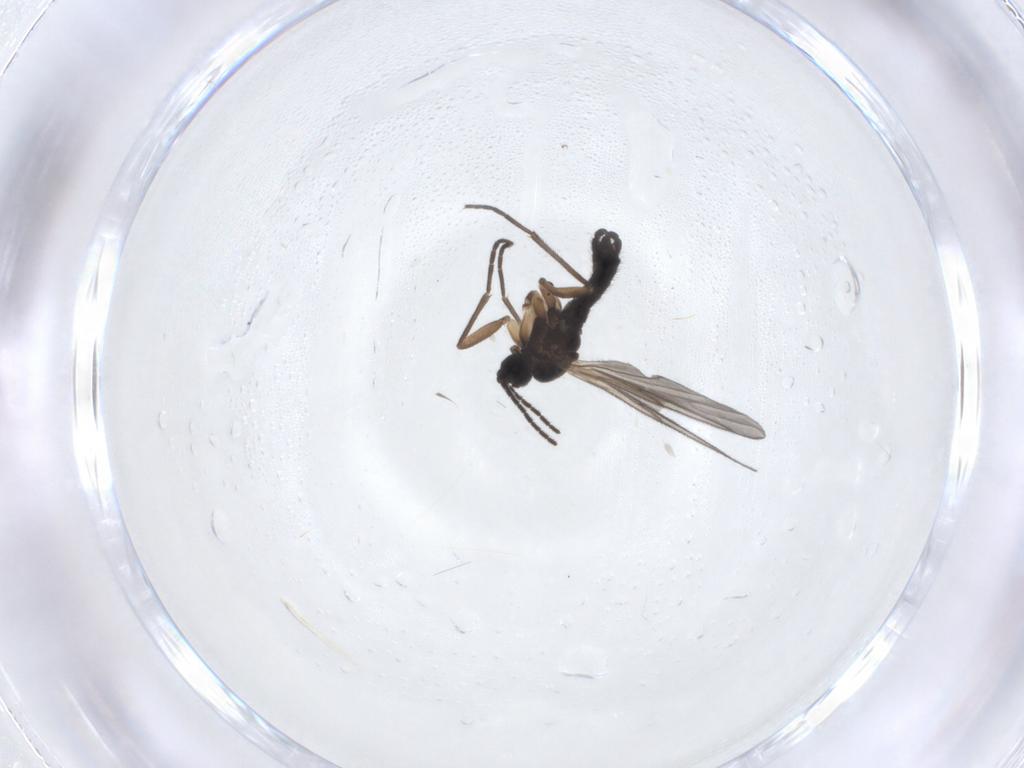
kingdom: Animalia
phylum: Arthropoda
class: Insecta
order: Diptera
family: Sciaridae
